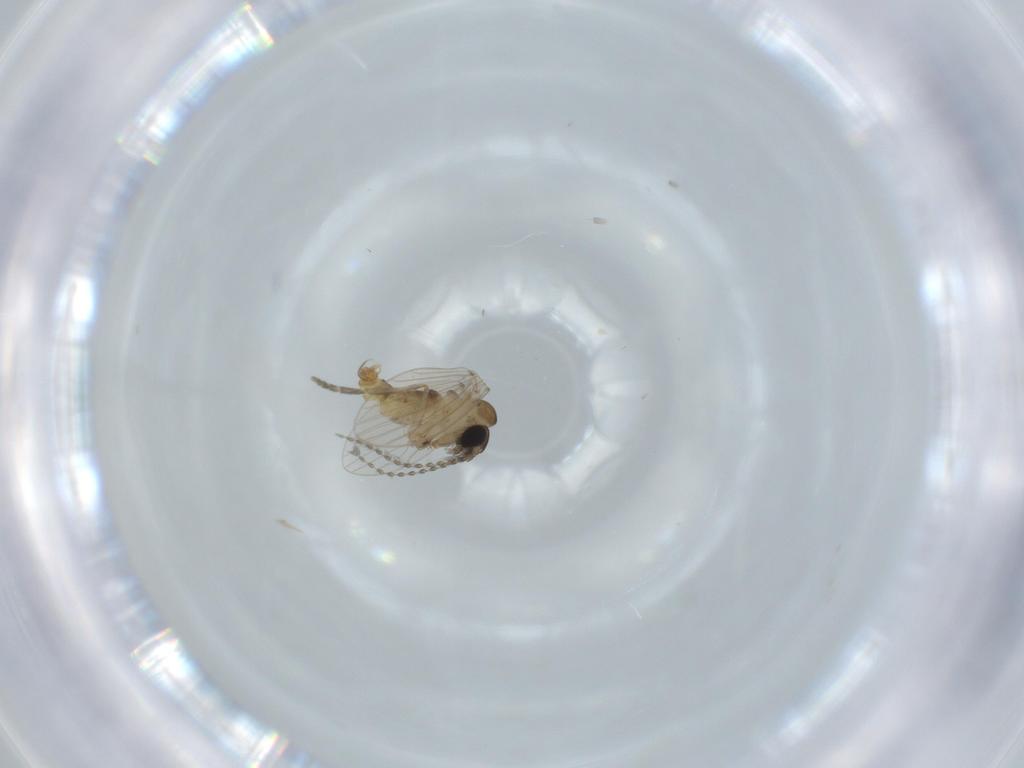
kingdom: Animalia
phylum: Arthropoda
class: Insecta
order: Diptera
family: Psychodidae
